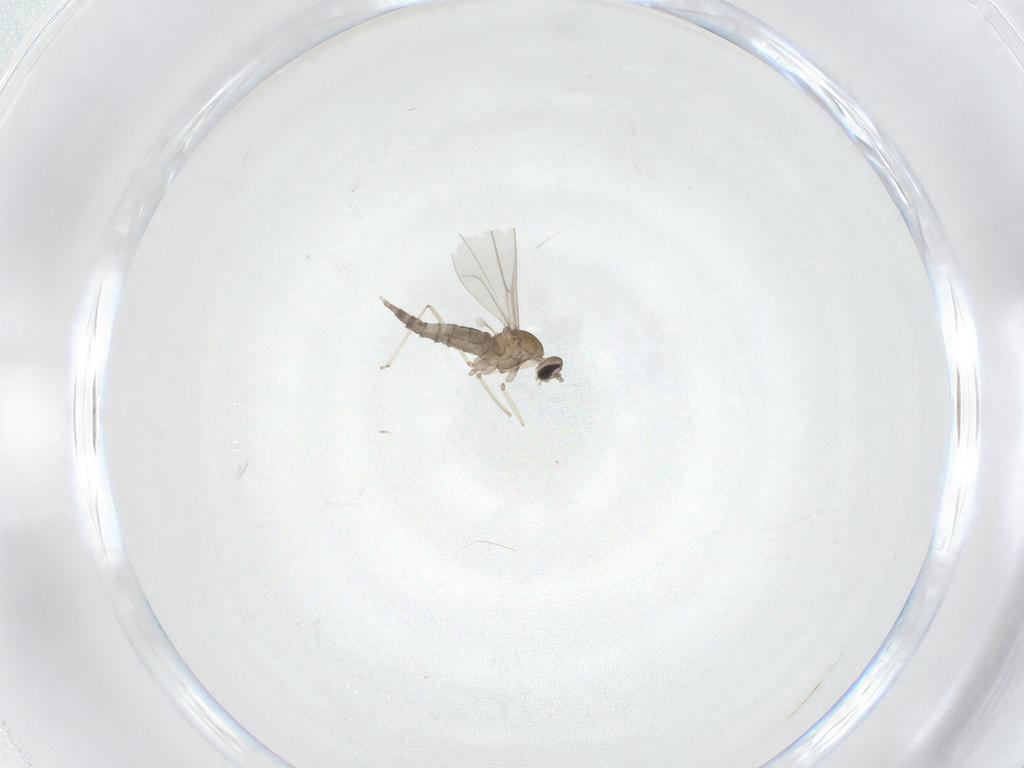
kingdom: Animalia
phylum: Arthropoda
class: Insecta
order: Diptera
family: Cecidomyiidae
